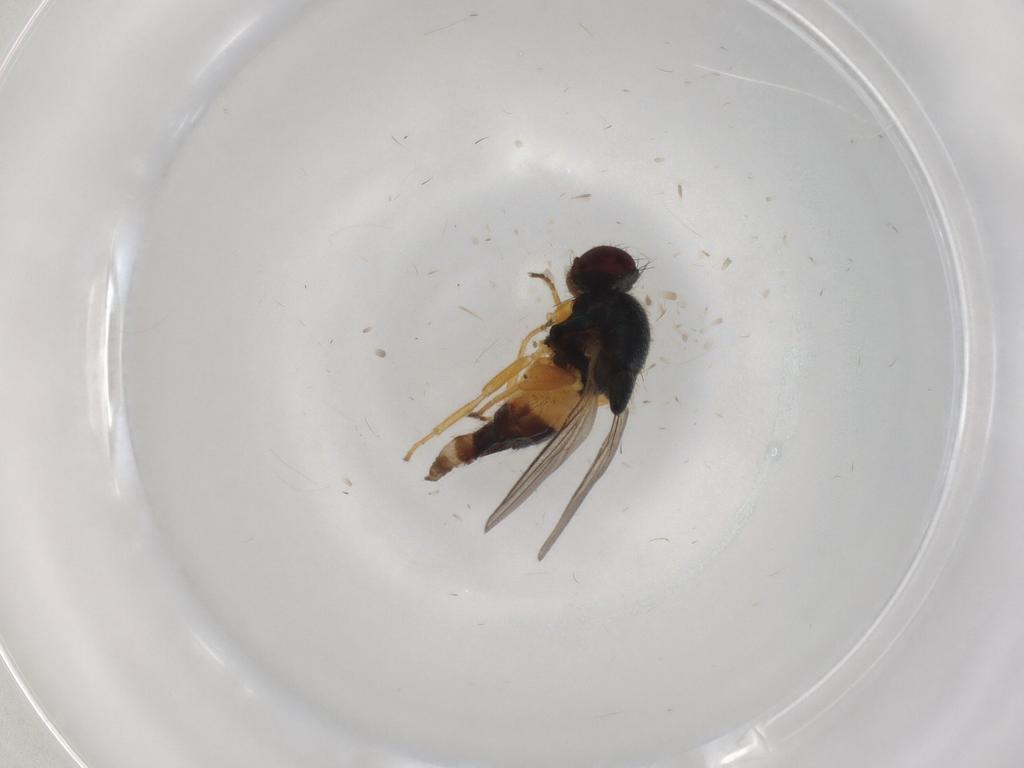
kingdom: Animalia
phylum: Arthropoda
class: Insecta
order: Diptera
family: Chloropidae
